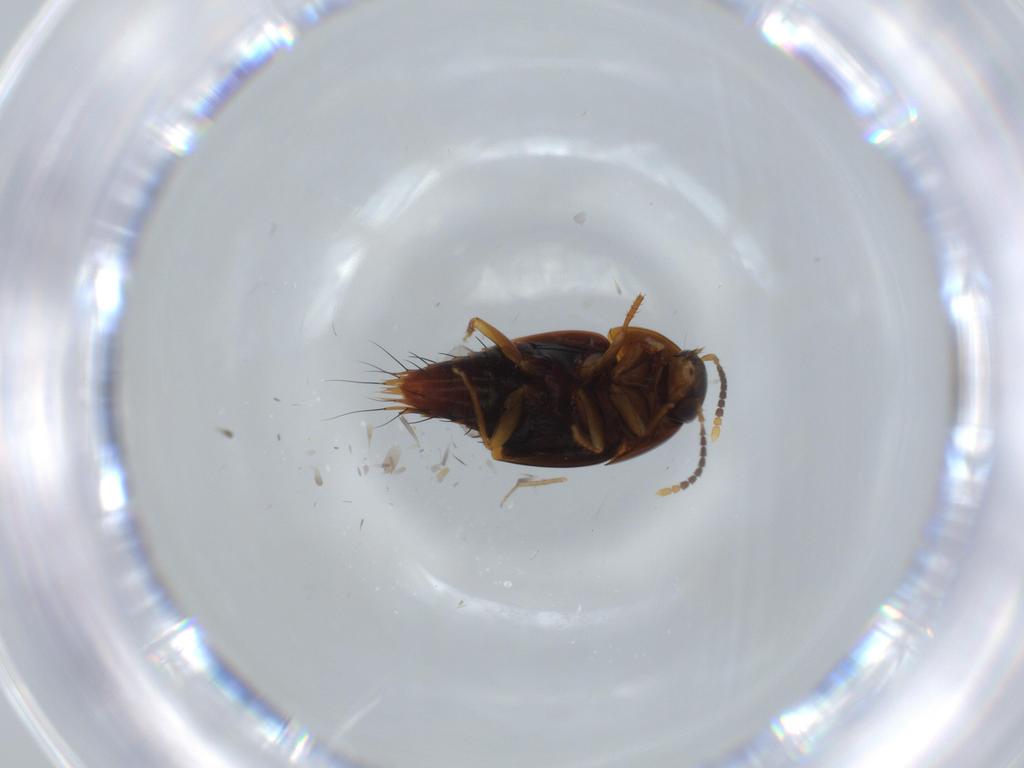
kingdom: Animalia
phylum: Arthropoda
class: Insecta
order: Coleoptera
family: Staphylinidae
